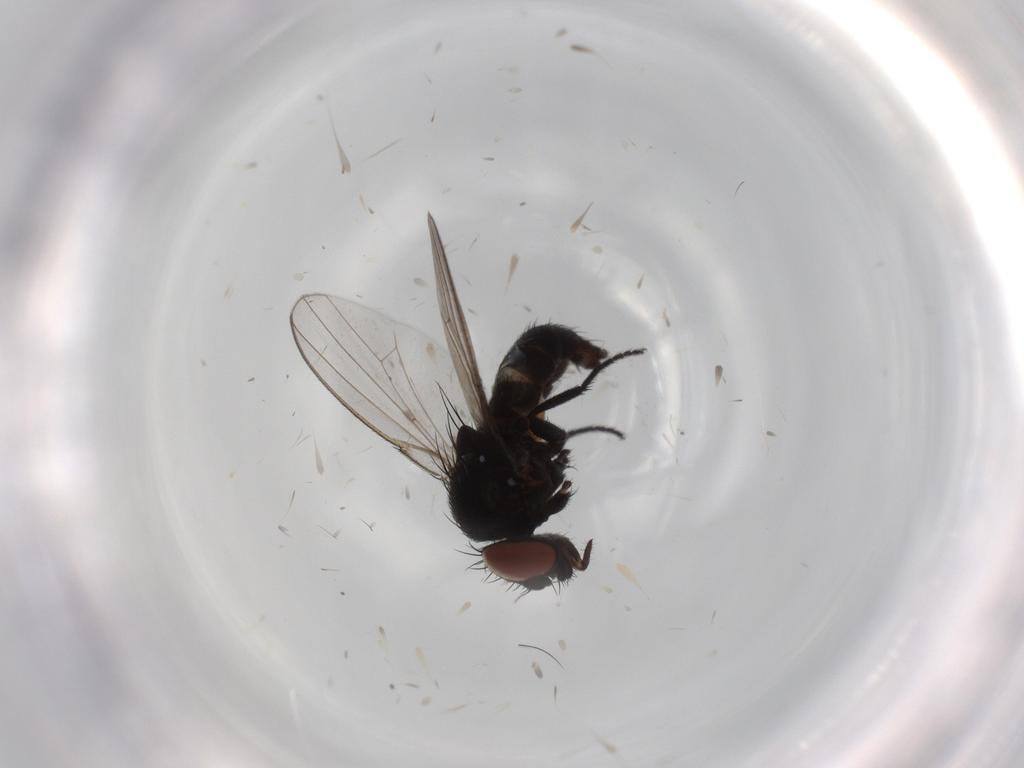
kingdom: Animalia
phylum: Arthropoda
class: Insecta
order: Diptera
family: Milichiidae
